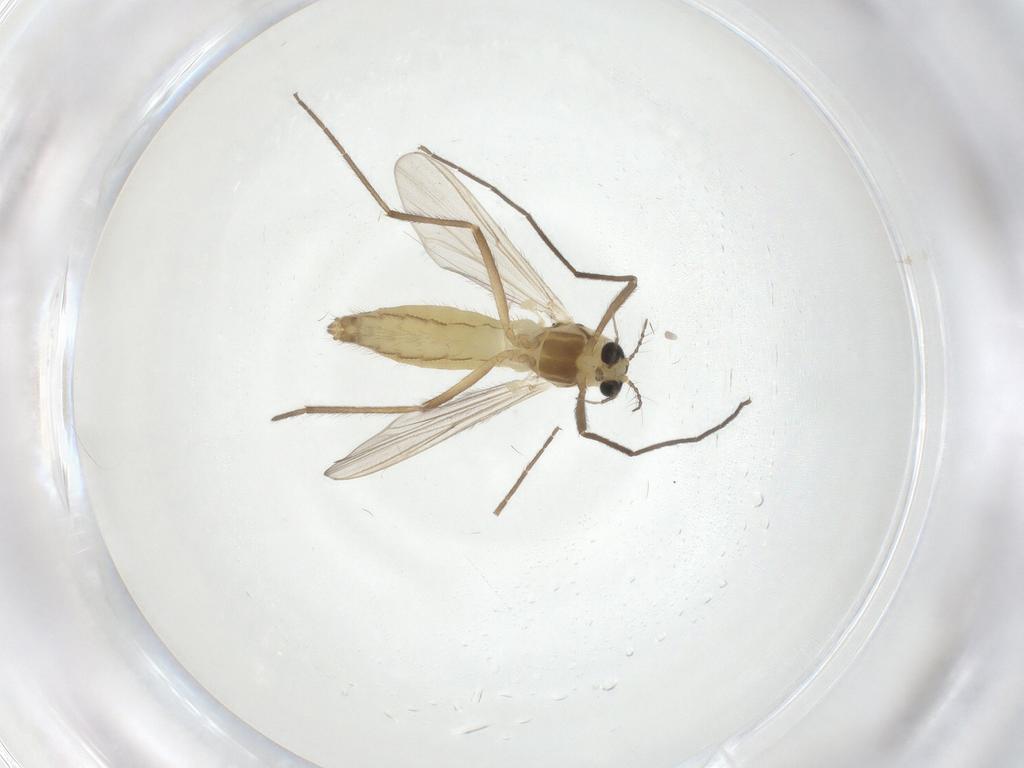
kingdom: Animalia
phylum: Arthropoda
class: Insecta
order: Diptera
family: Chironomidae
